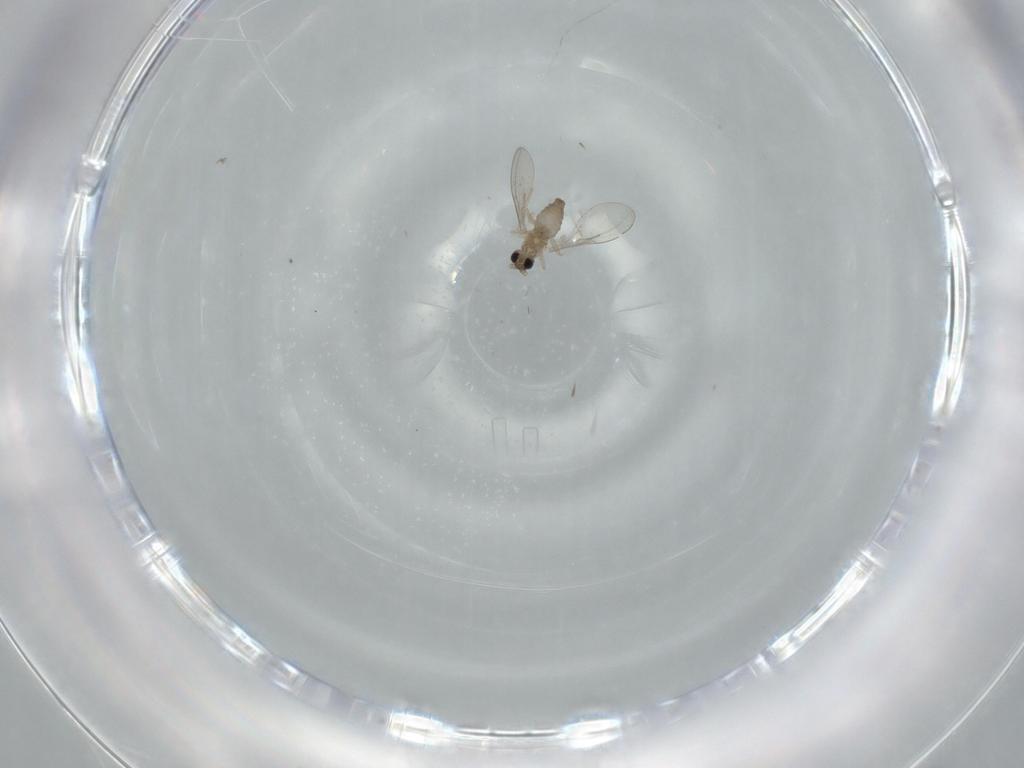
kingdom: Animalia
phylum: Arthropoda
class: Insecta
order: Diptera
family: Cecidomyiidae
